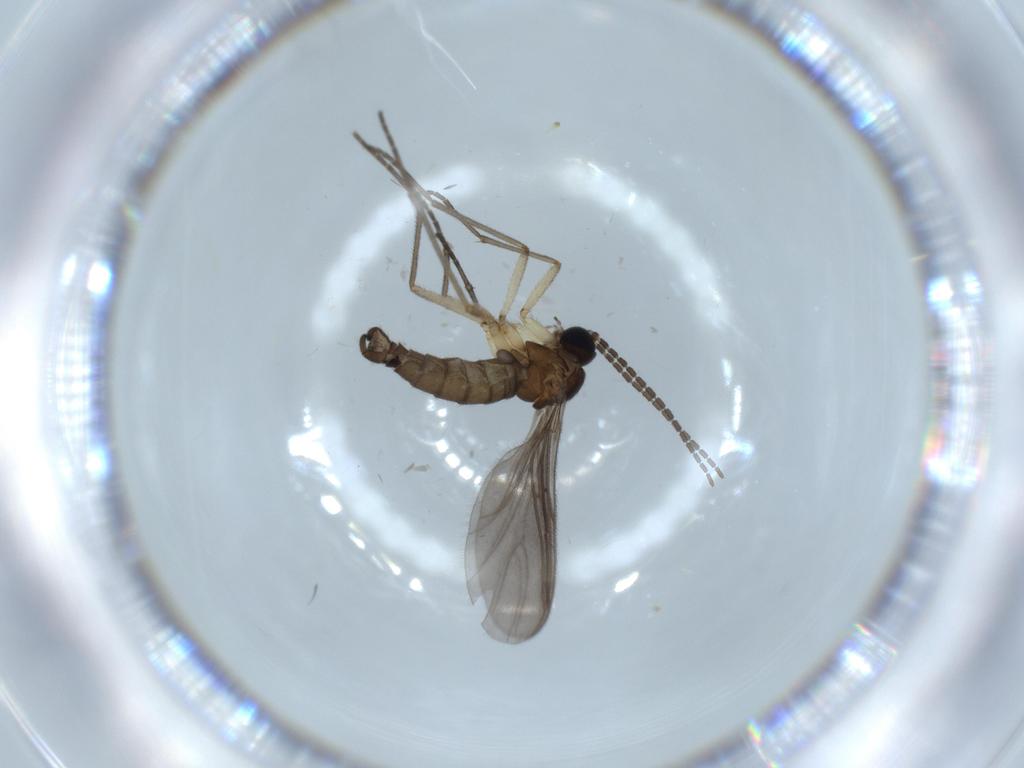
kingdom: Animalia
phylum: Arthropoda
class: Insecta
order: Diptera
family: Sciaridae
